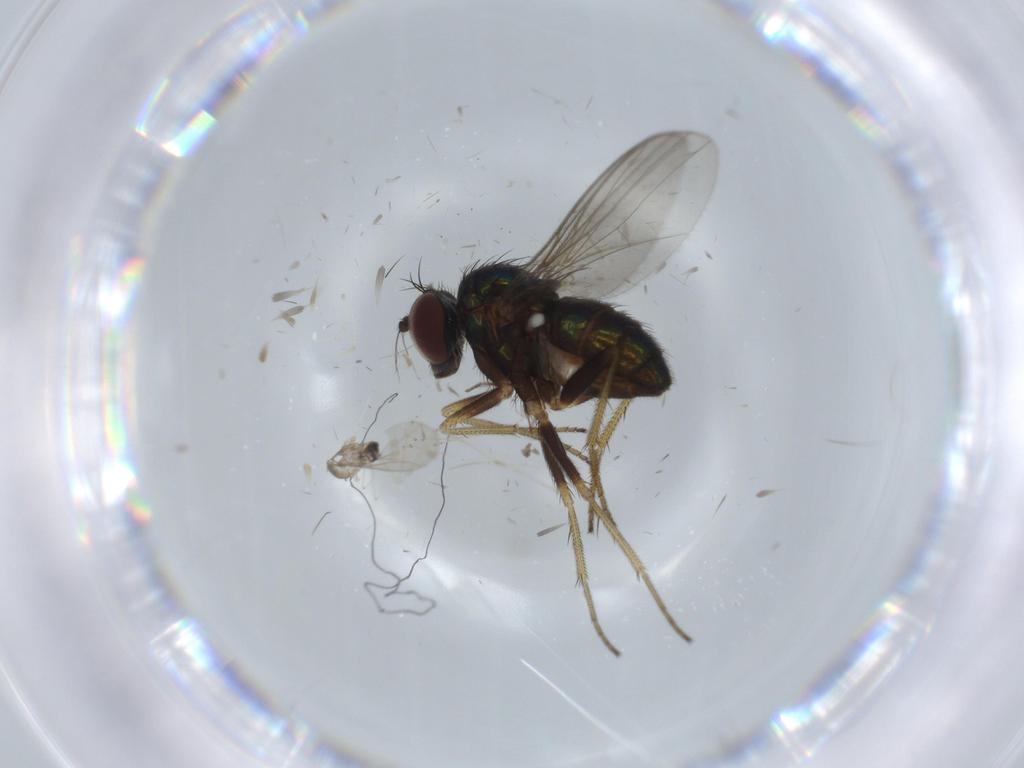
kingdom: Animalia
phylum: Arthropoda
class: Insecta
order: Diptera
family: Dolichopodidae
